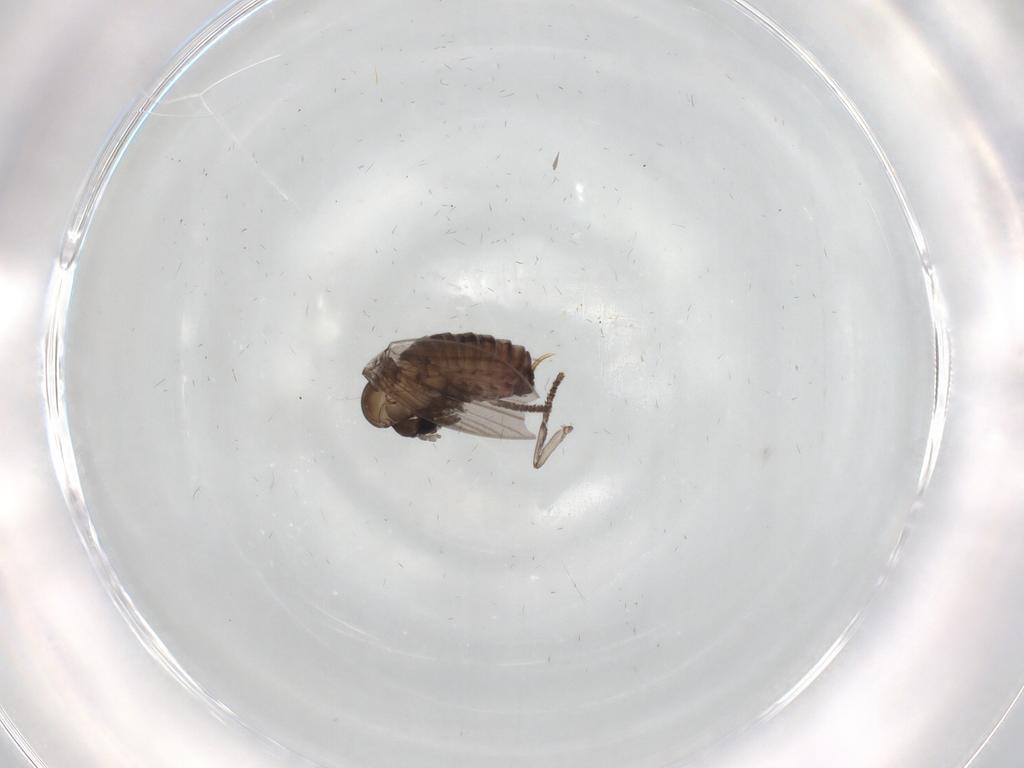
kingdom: Animalia
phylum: Arthropoda
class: Insecta
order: Diptera
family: Psychodidae
